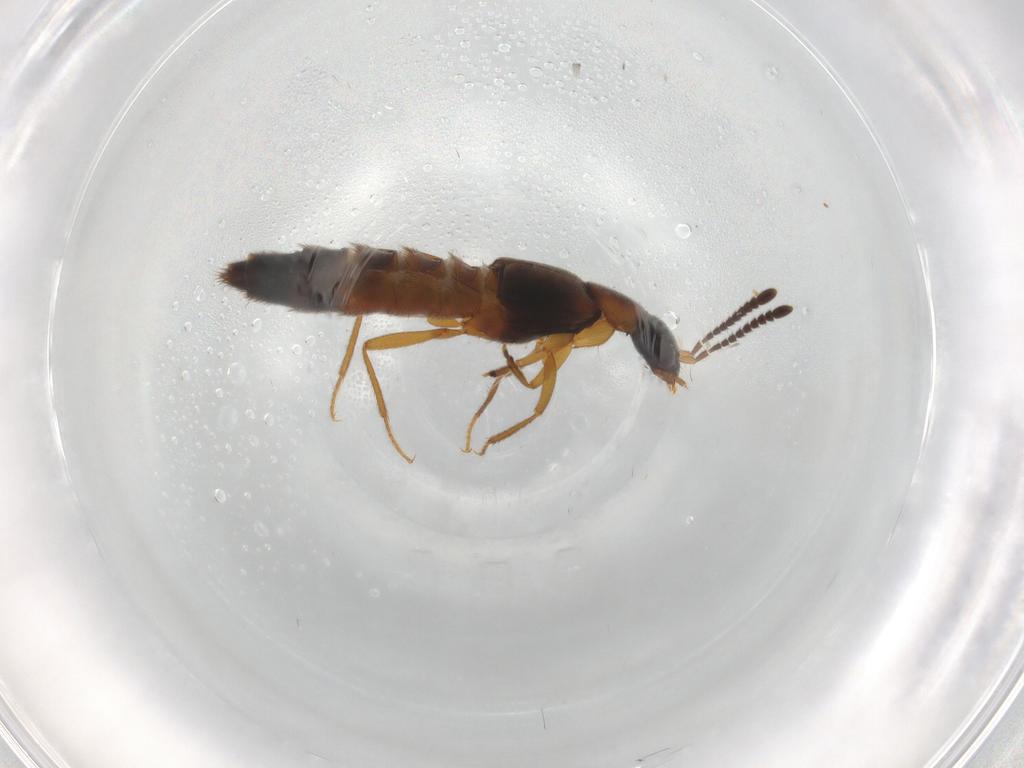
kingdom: Animalia
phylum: Arthropoda
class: Insecta
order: Coleoptera
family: Staphylinidae
